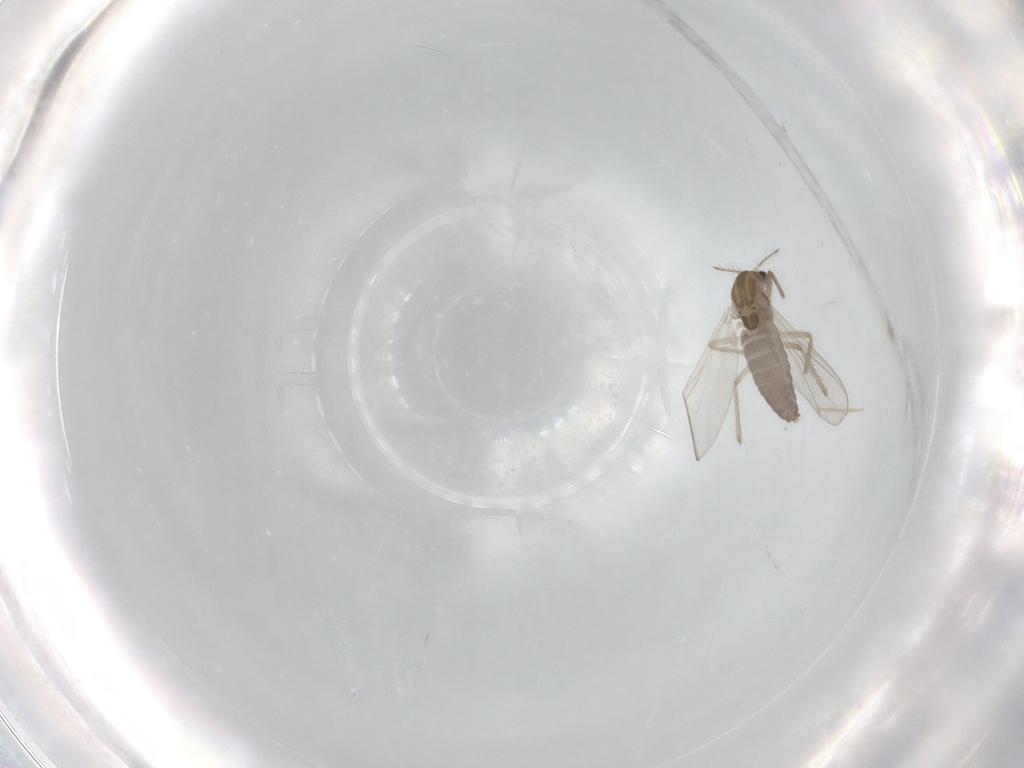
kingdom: Animalia
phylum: Arthropoda
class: Insecta
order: Diptera
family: Chironomidae
